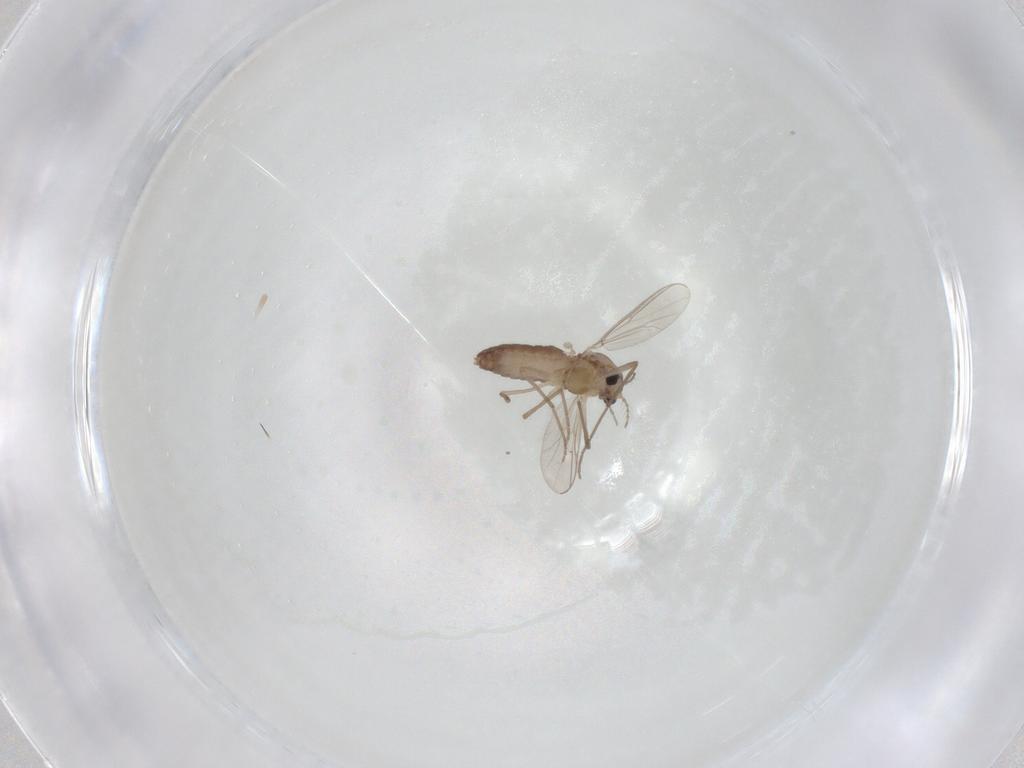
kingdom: Animalia
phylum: Arthropoda
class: Insecta
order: Diptera
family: Chironomidae
